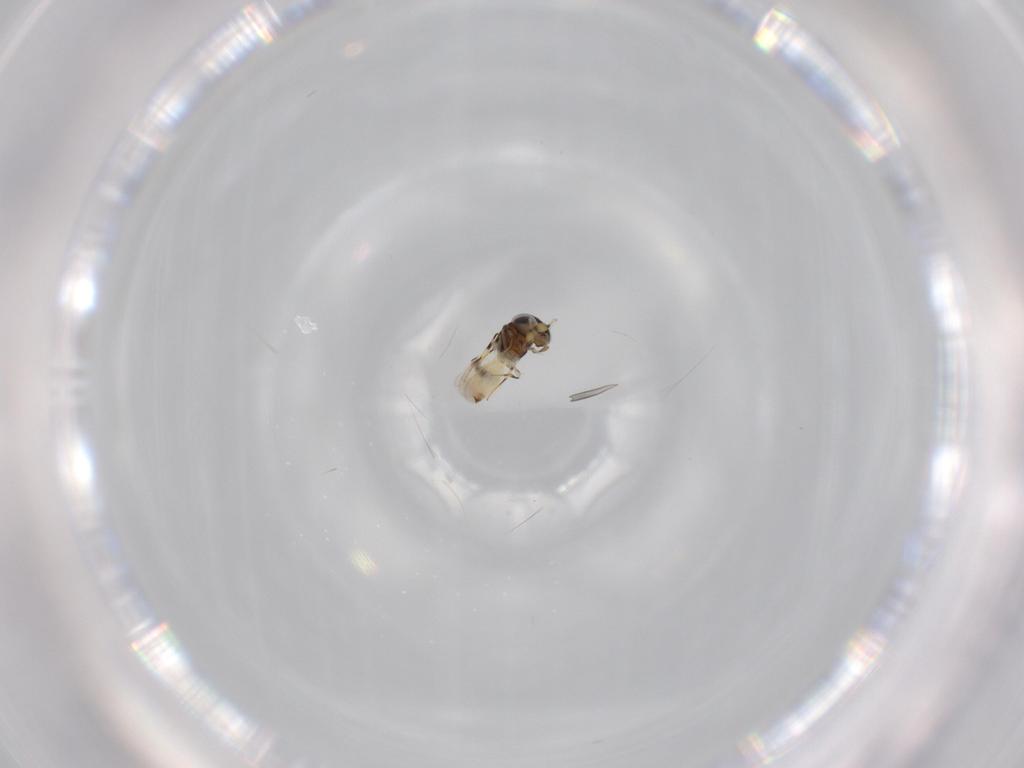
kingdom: Animalia
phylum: Arthropoda
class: Insecta
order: Hymenoptera
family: Scelionidae
